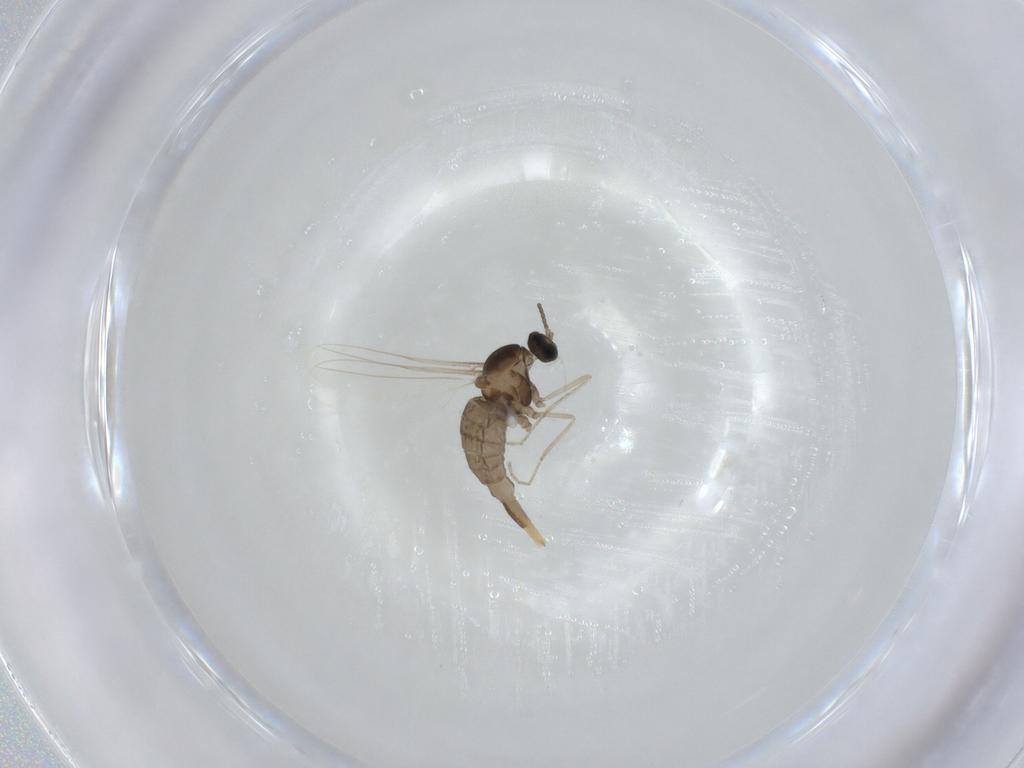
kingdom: Animalia
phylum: Arthropoda
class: Insecta
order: Diptera
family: Cecidomyiidae
